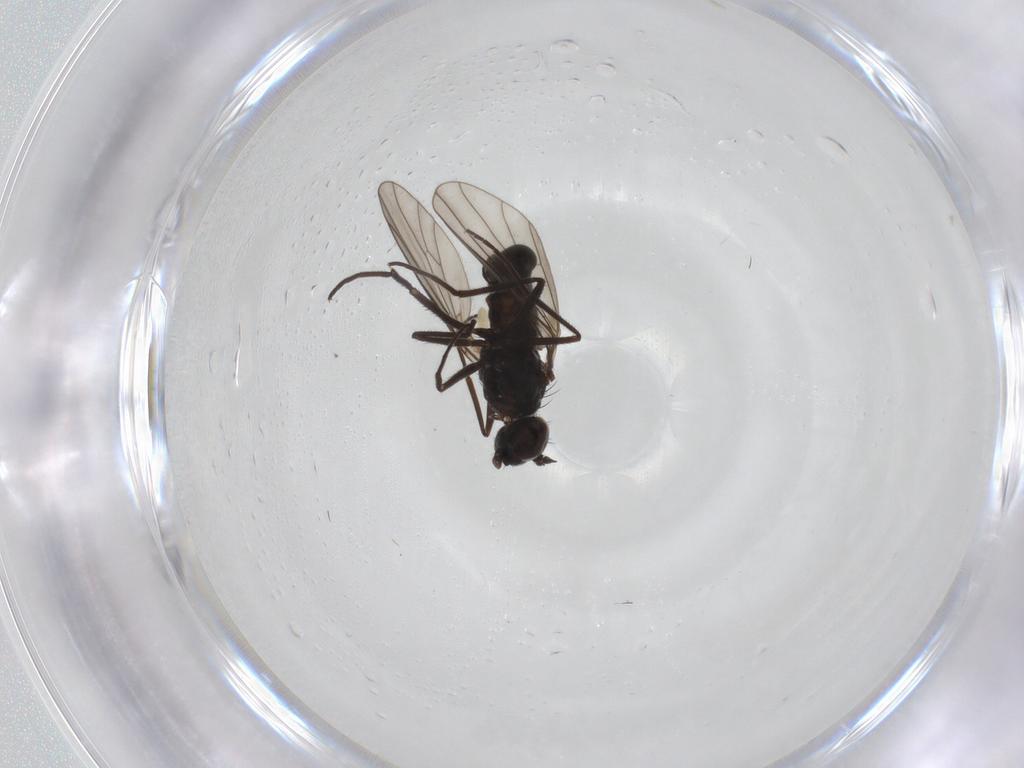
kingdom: Animalia
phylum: Arthropoda
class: Insecta
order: Diptera
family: Dolichopodidae
